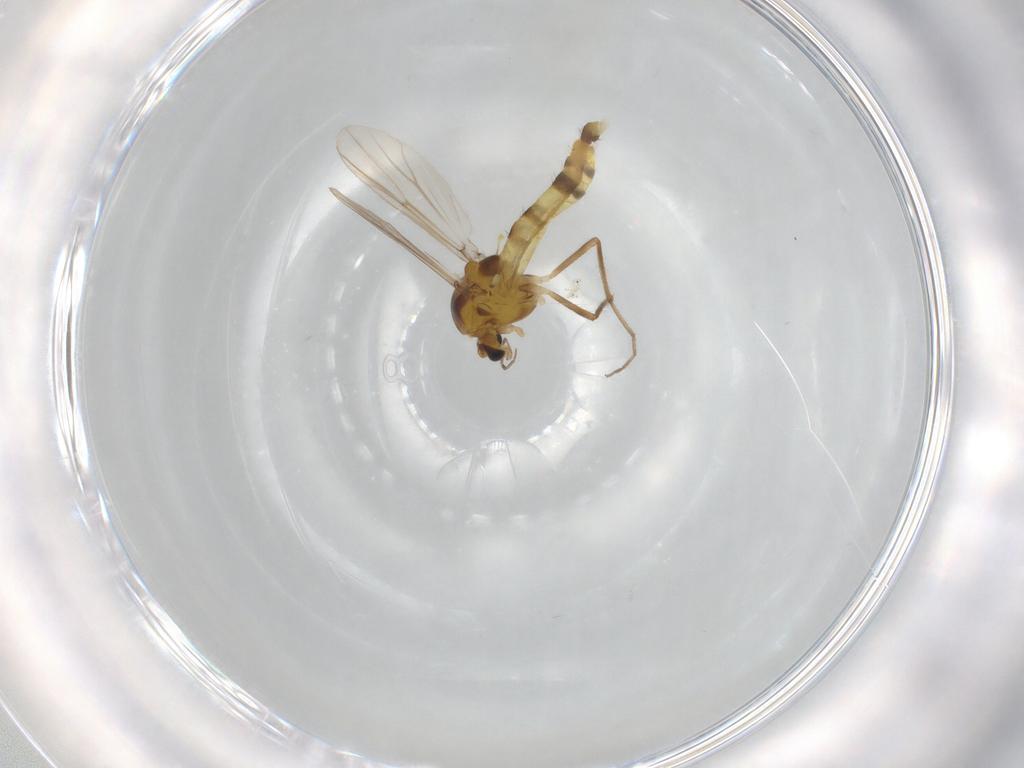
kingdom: Animalia
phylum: Arthropoda
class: Insecta
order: Diptera
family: Chironomidae
